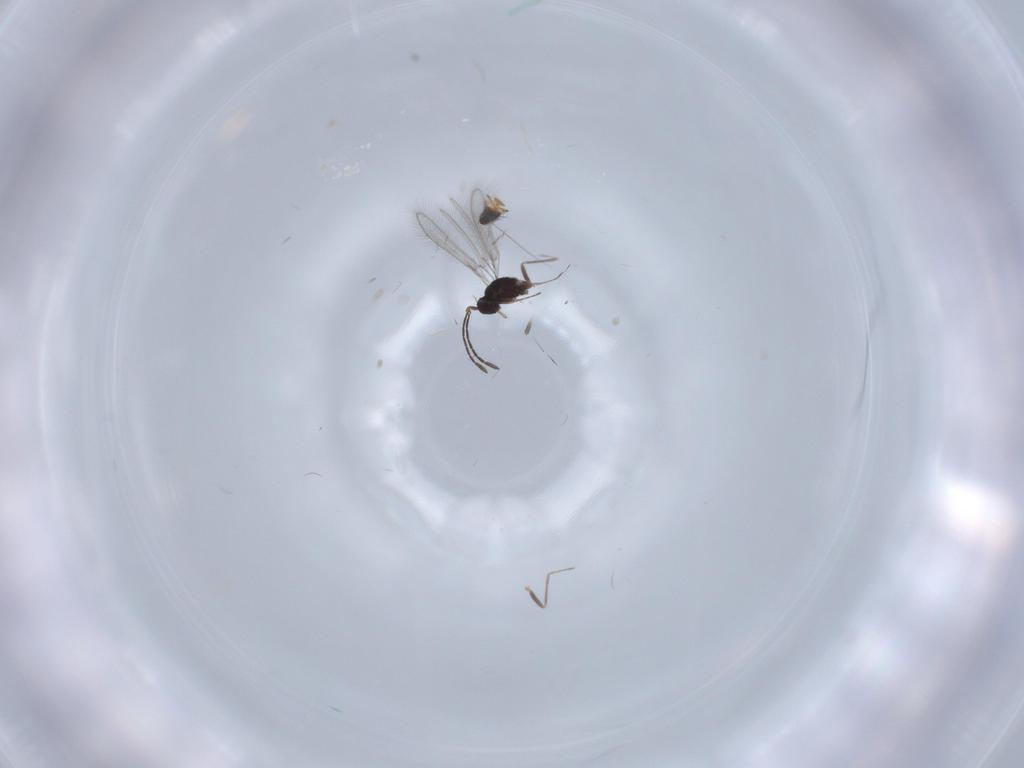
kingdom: Animalia
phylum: Arthropoda
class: Insecta
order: Hymenoptera
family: Mymaridae
